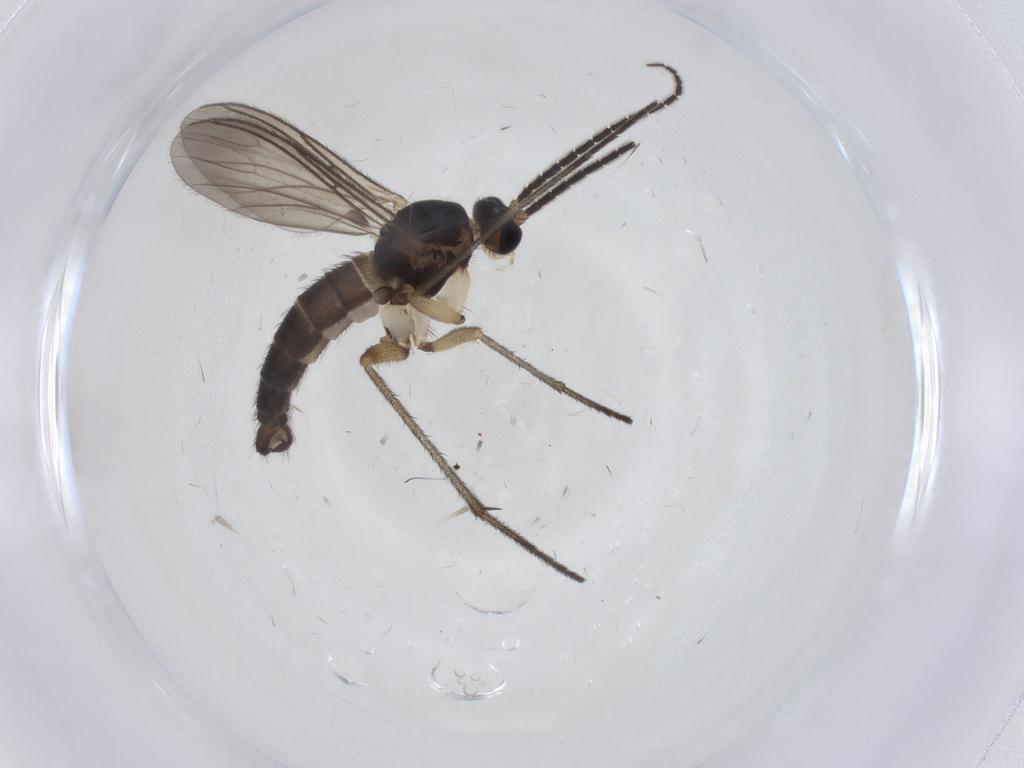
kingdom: Animalia
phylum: Arthropoda
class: Insecta
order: Diptera
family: Sciaridae
